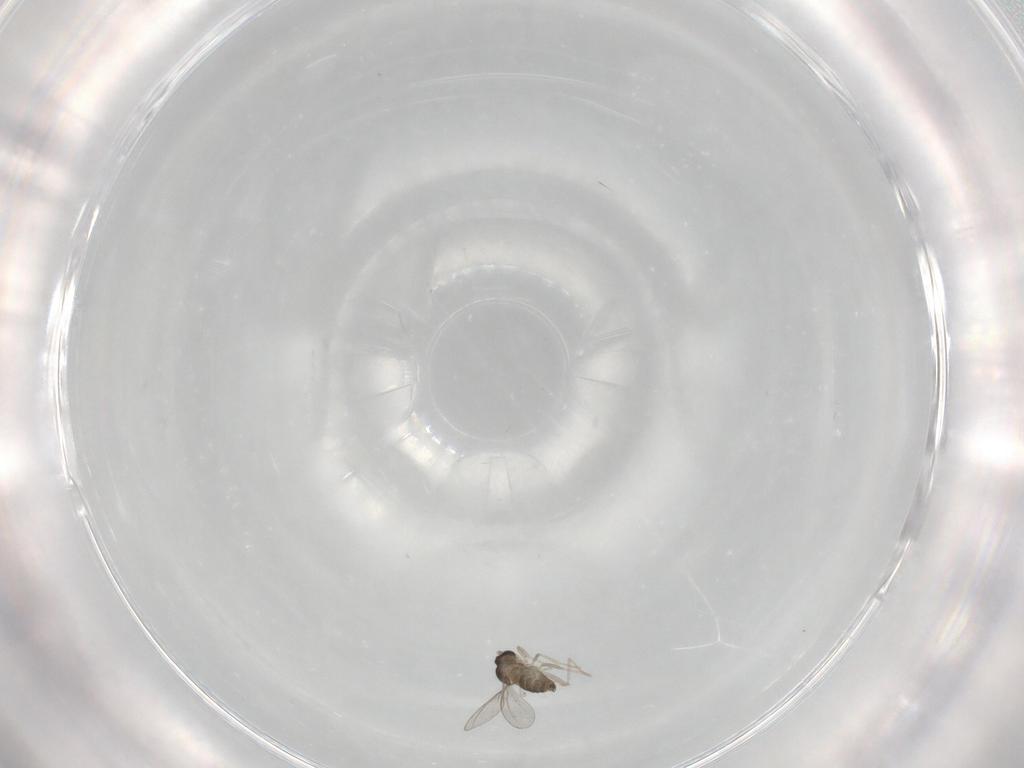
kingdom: Animalia
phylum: Arthropoda
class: Insecta
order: Diptera
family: Cecidomyiidae
